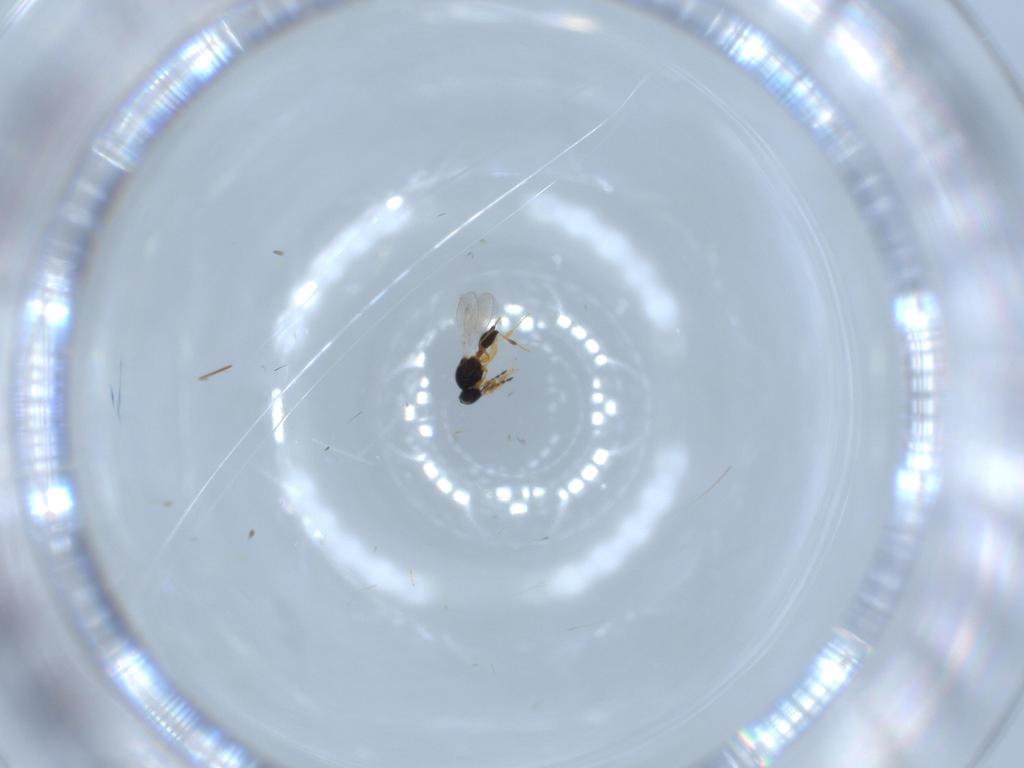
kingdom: Animalia
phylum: Arthropoda
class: Insecta
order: Hymenoptera
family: Platygastridae
